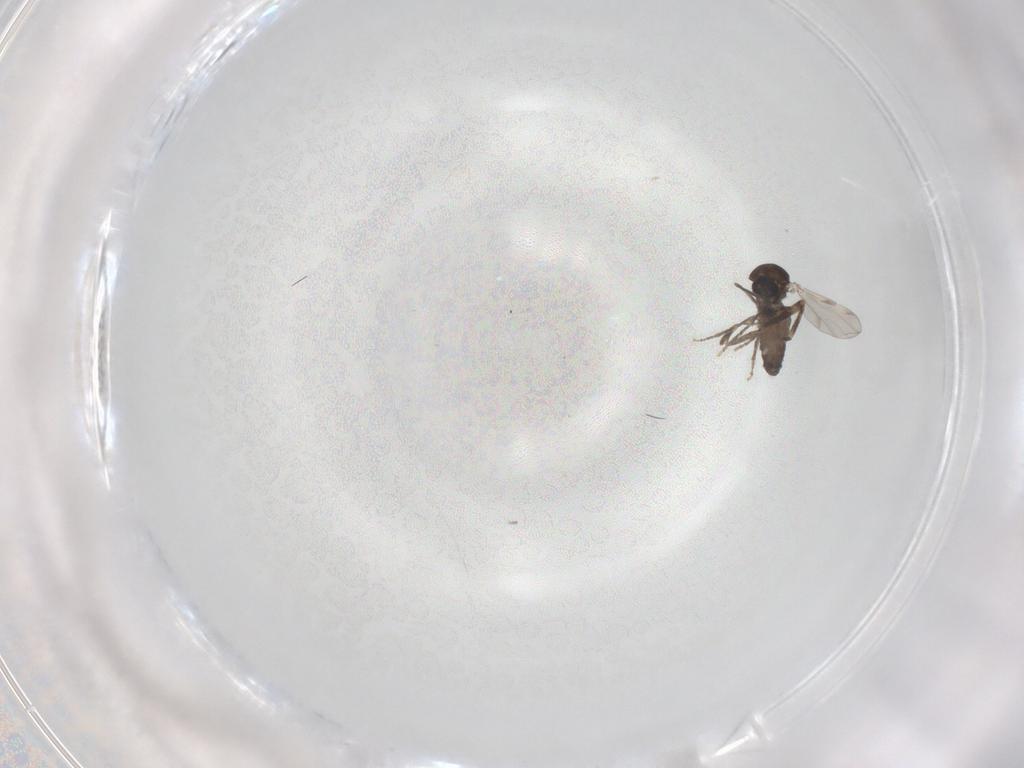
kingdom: Animalia
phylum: Arthropoda
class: Insecta
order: Diptera
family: Ceratopogonidae
